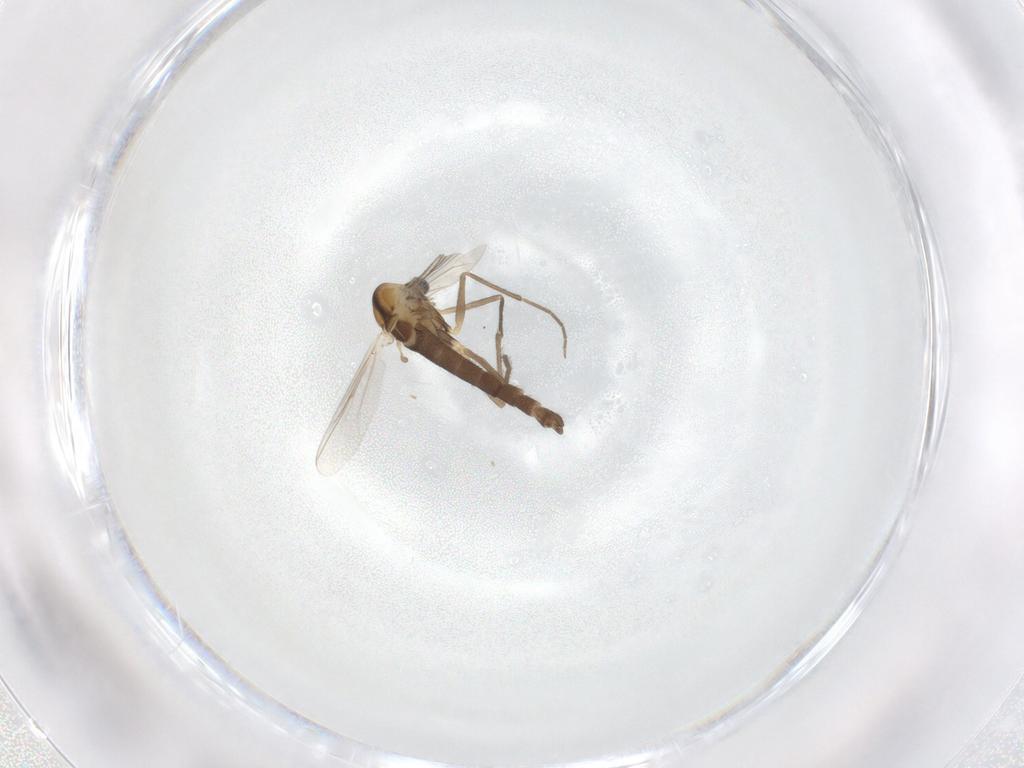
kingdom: Animalia
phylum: Arthropoda
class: Insecta
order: Diptera
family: Chironomidae
